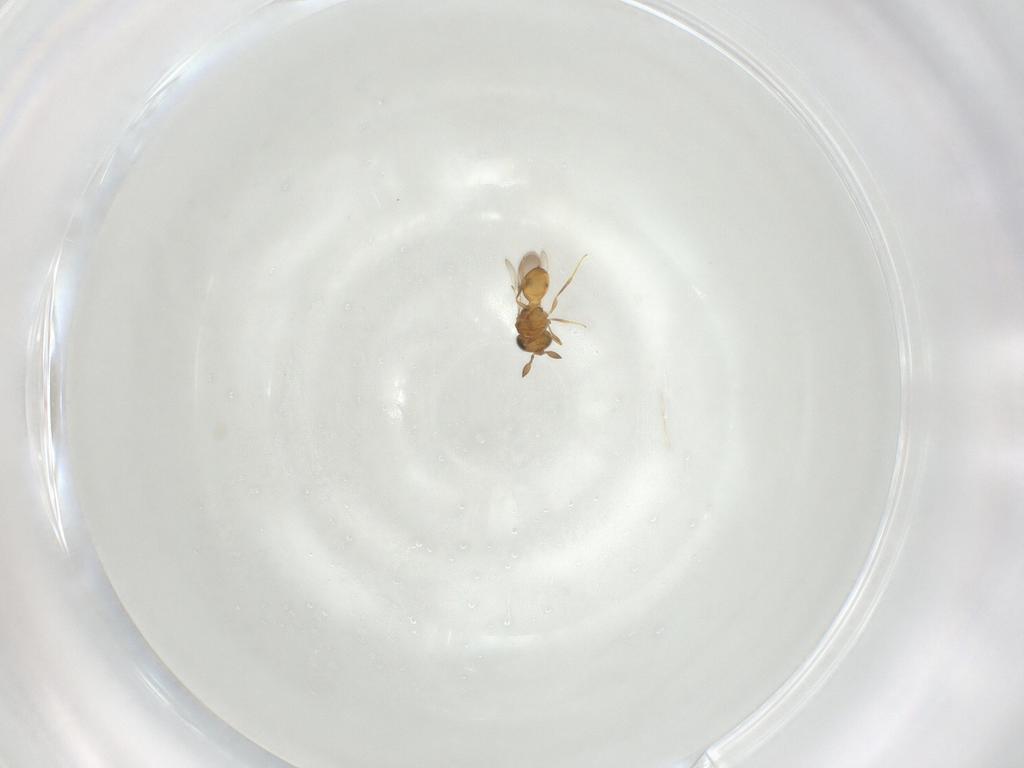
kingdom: Animalia
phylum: Arthropoda
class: Insecta
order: Hymenoptera
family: Scelionidae
